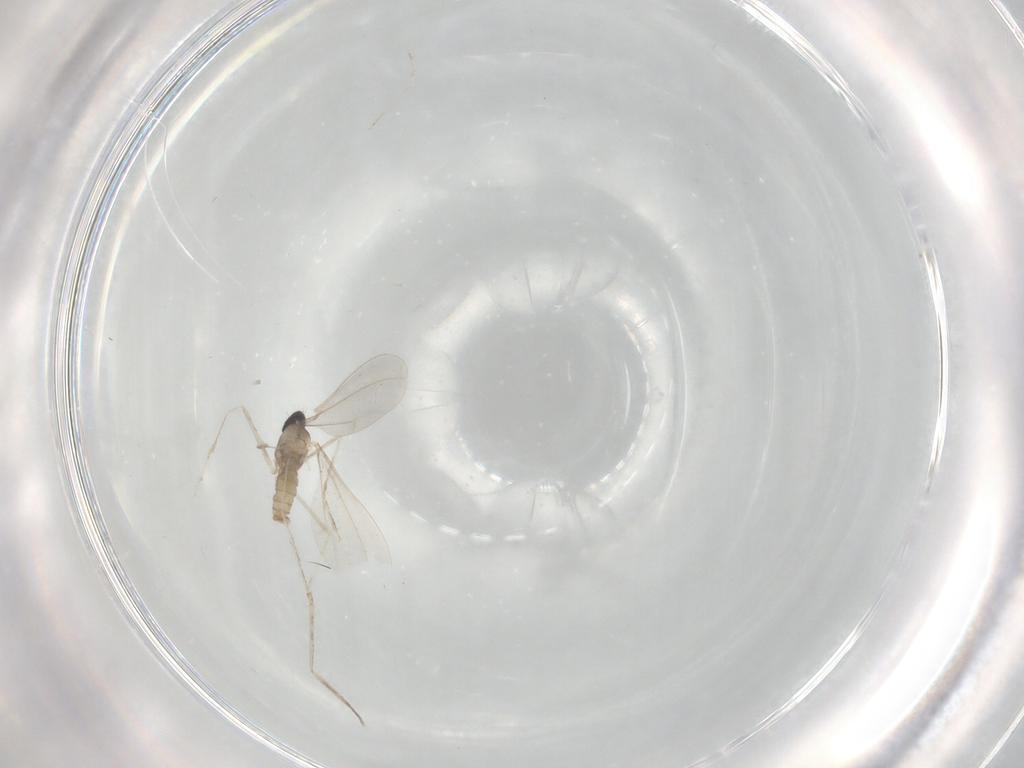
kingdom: Animalia
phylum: Arthropoda
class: Insecta
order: Diptera
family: Cecidomyiidae
